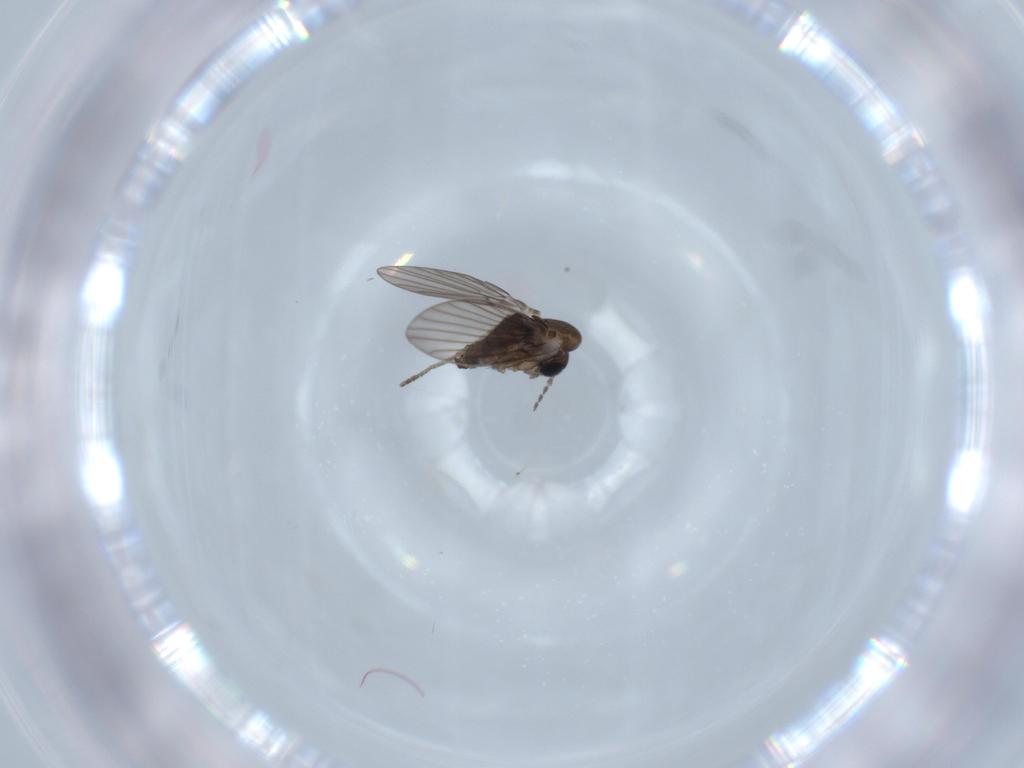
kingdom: Animalia
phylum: Arthropoda
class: Insecta
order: Diptera
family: Psychodidae
